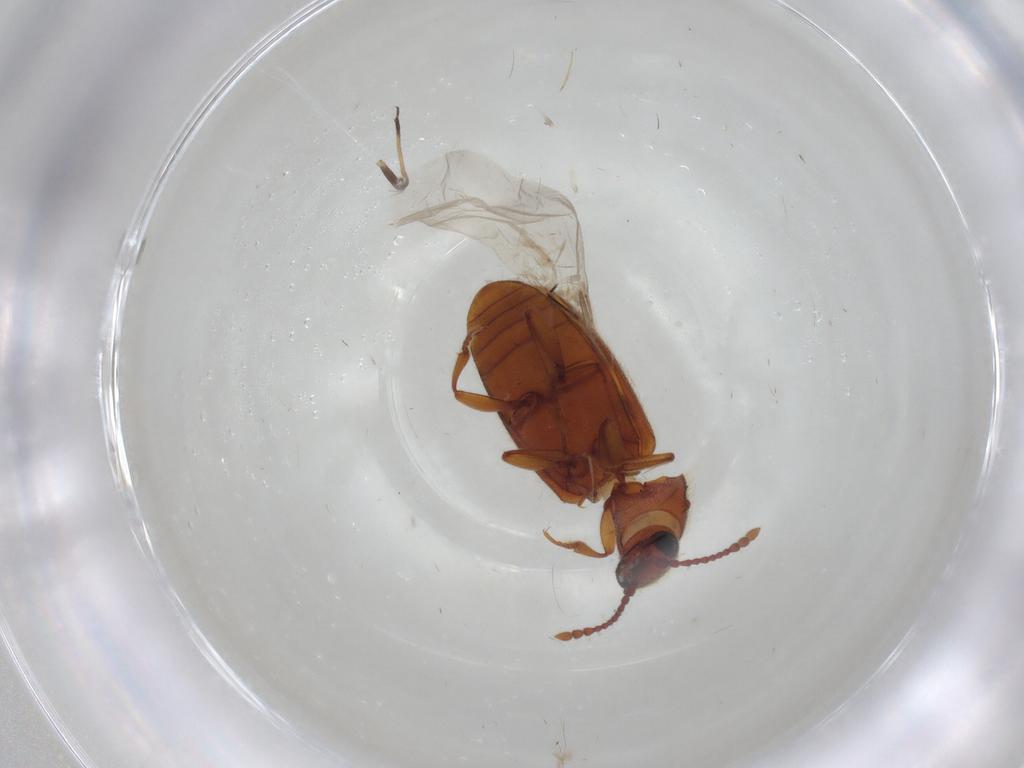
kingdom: Animalia
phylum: Arthropoda
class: Insecta
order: Coleoptera
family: Cryptophagidae
